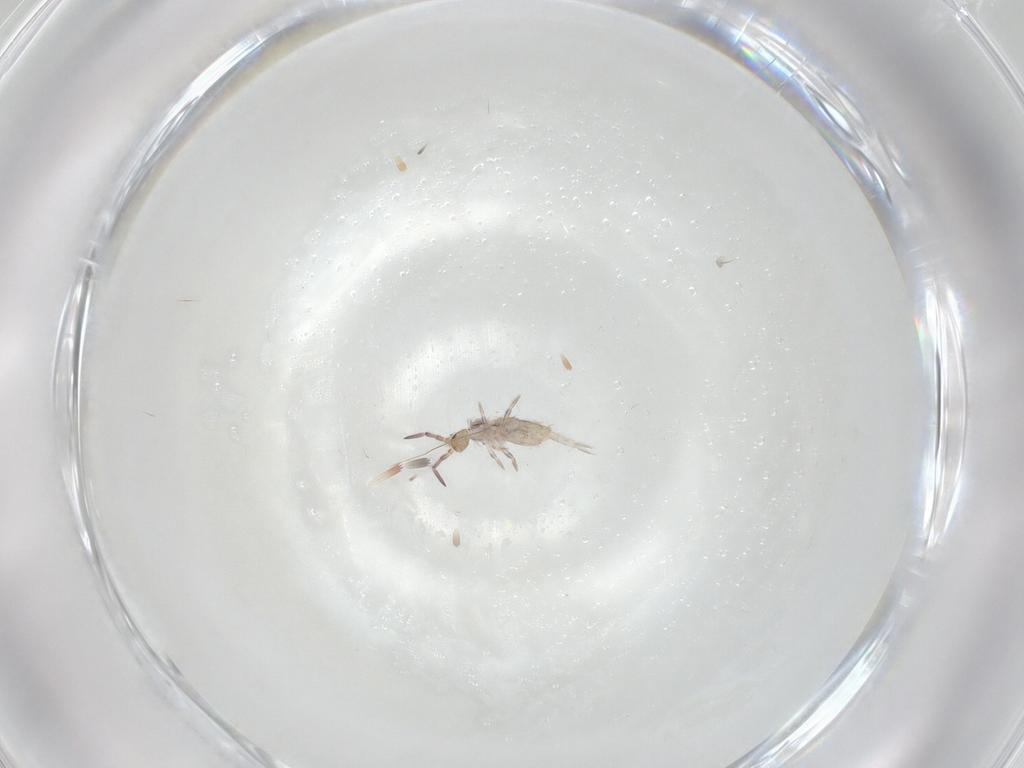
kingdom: Animalia
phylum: Arthropoda
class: Collembola
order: Entomobryomorpha
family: Entomobryidae
